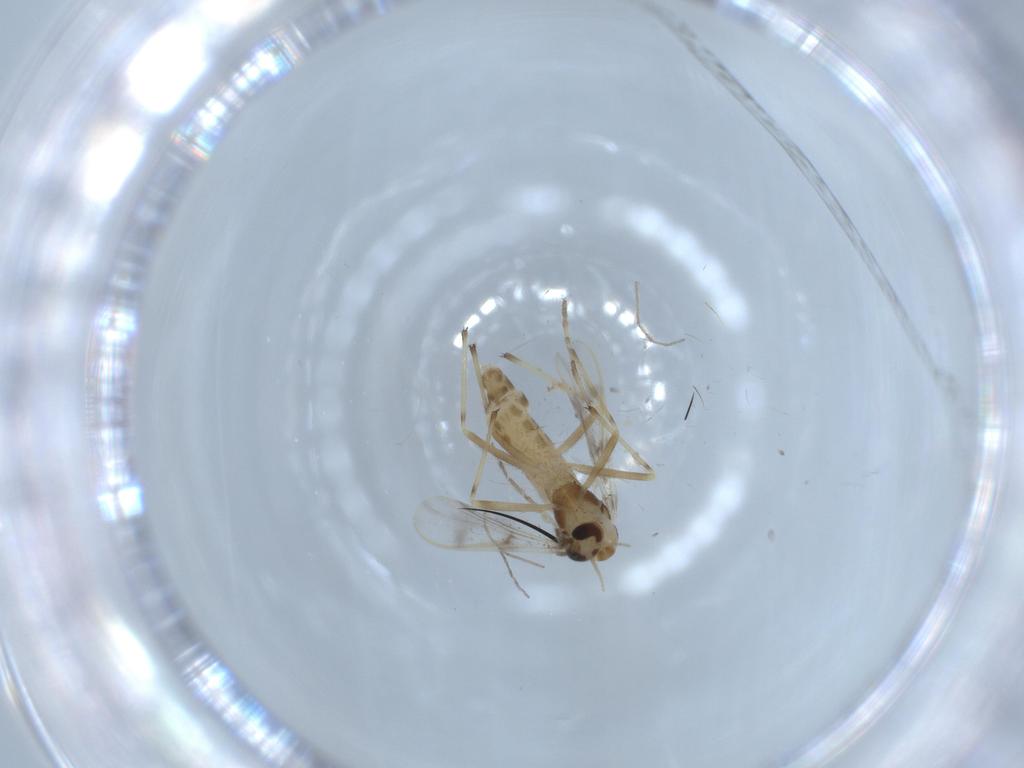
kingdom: Animalia
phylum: Arthropoda
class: Insecta
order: Diptera
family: Chironomidae
